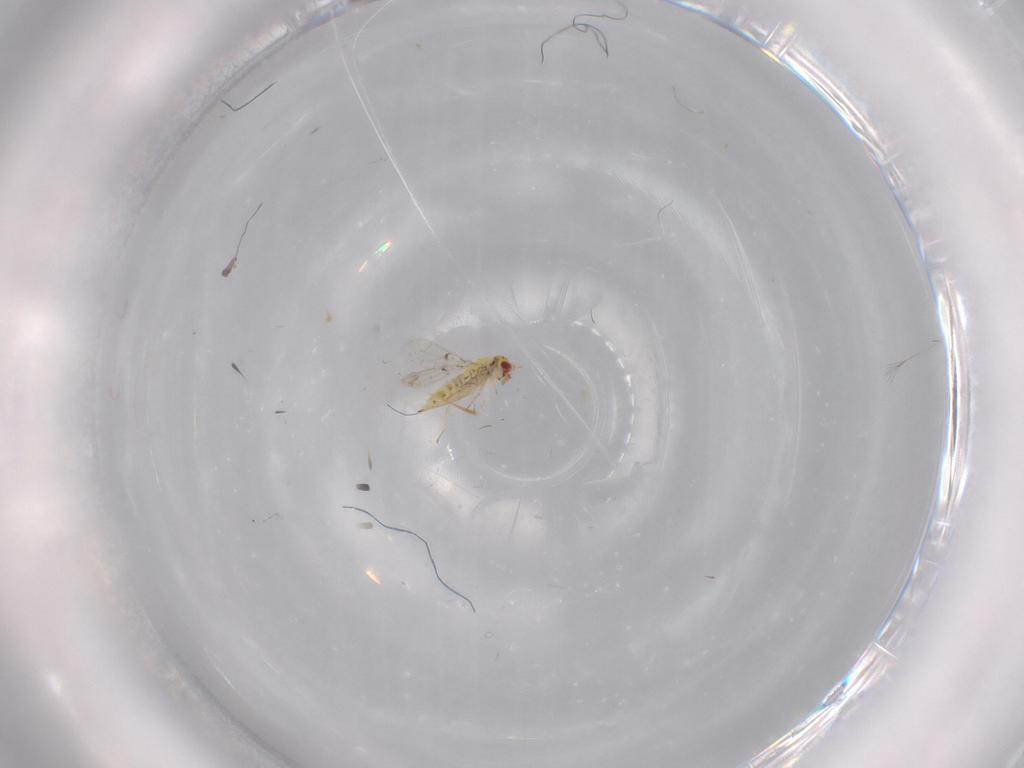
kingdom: Animalia
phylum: Arthropoda
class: Insecta
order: Hymenoptera
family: Trichogrammatidae
